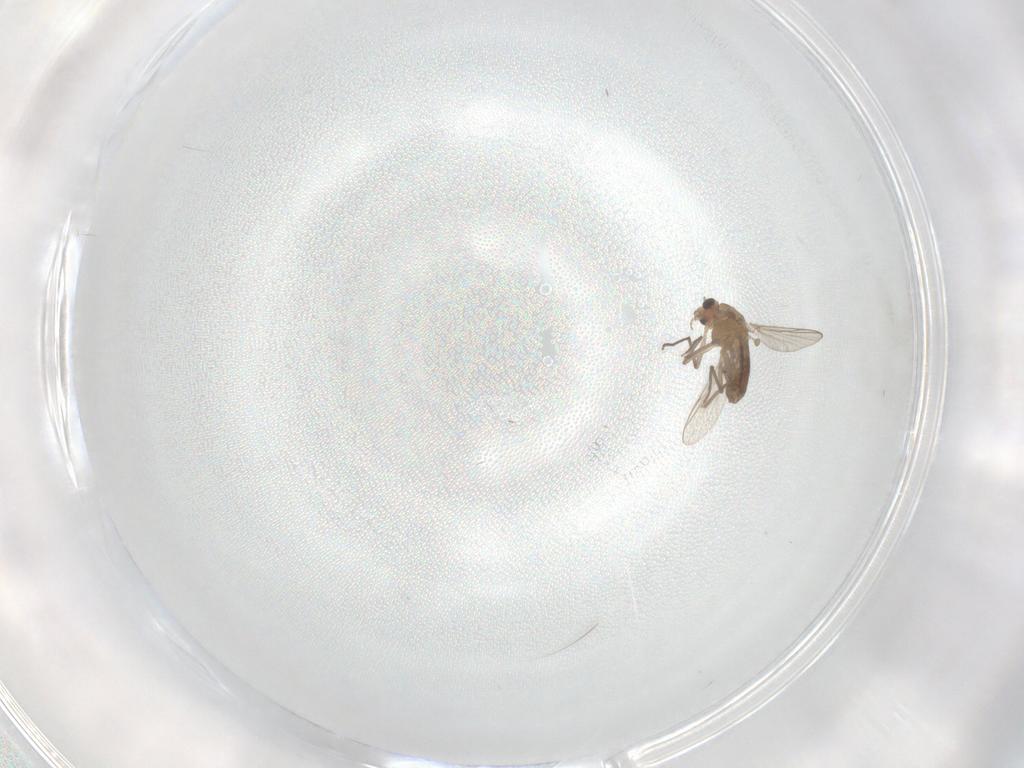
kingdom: Animalia
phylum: Arthropoda
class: Insecta
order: Diptera
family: Chironomidae
